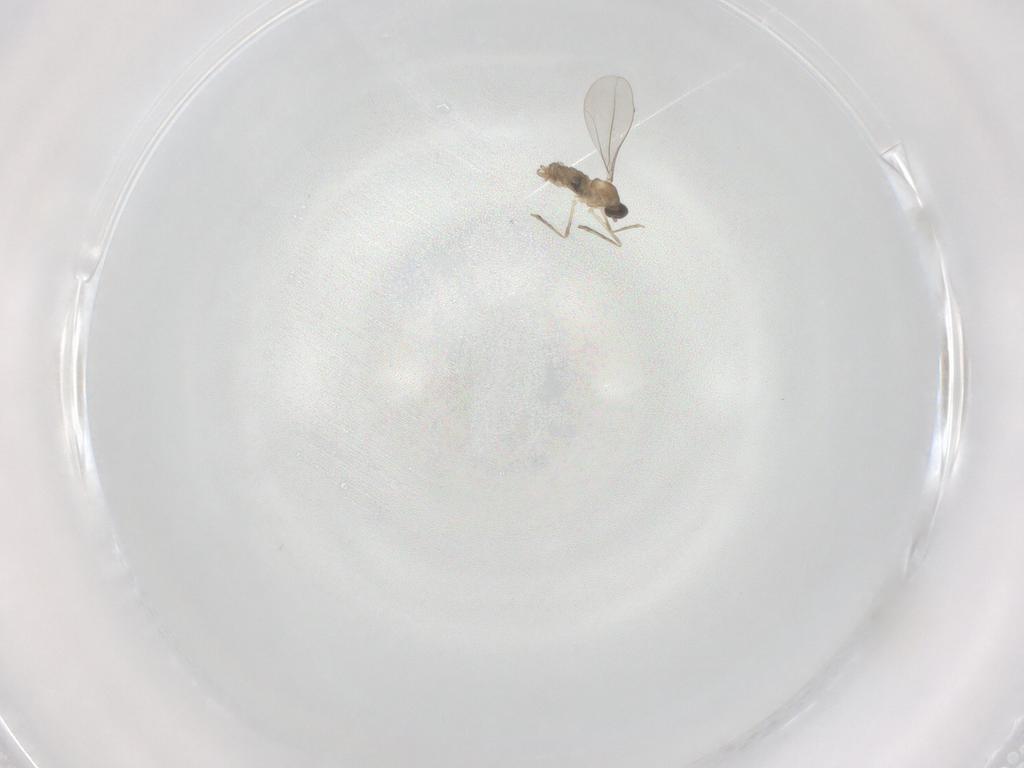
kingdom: Animalia
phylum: Arthropoda
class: Insecta
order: Diptera
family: Cecidomyiidae
